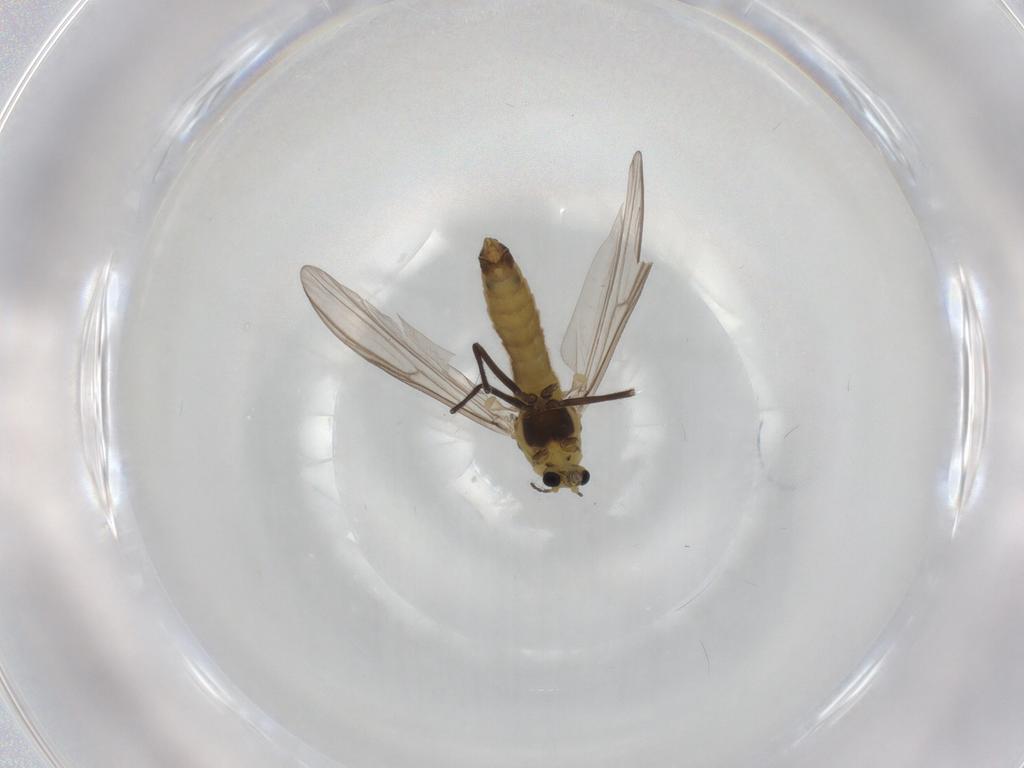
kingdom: Animalia
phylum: Arthropoda
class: Insecta
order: Diptera
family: Chironomidae
